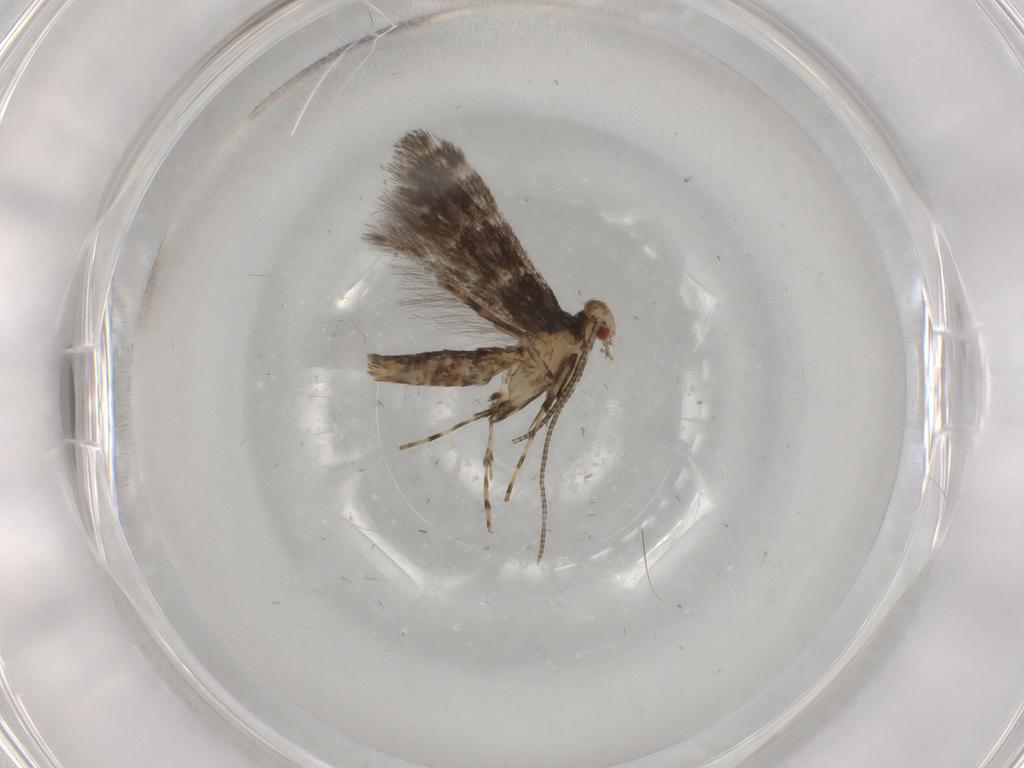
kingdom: Animalia
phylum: Arthropoda
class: Insecta
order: Lepidoptera
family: Gracillariidae
